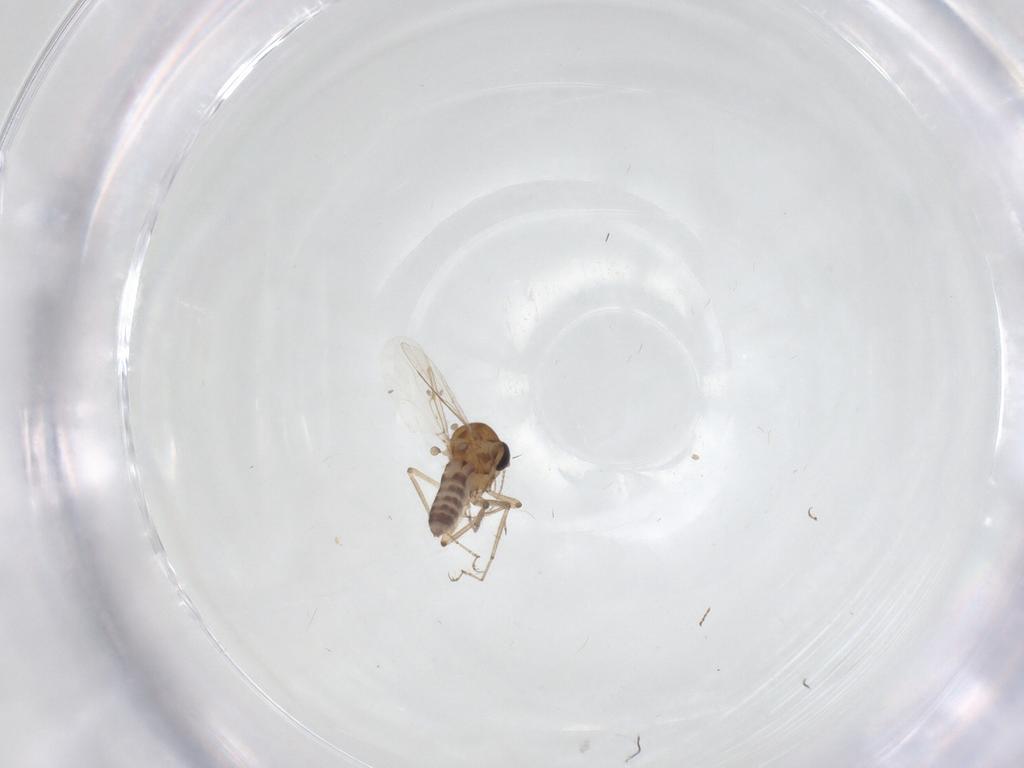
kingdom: Animalia
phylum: Arthropoda
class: Insecta
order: Diptera
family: Ceratopogonidae
